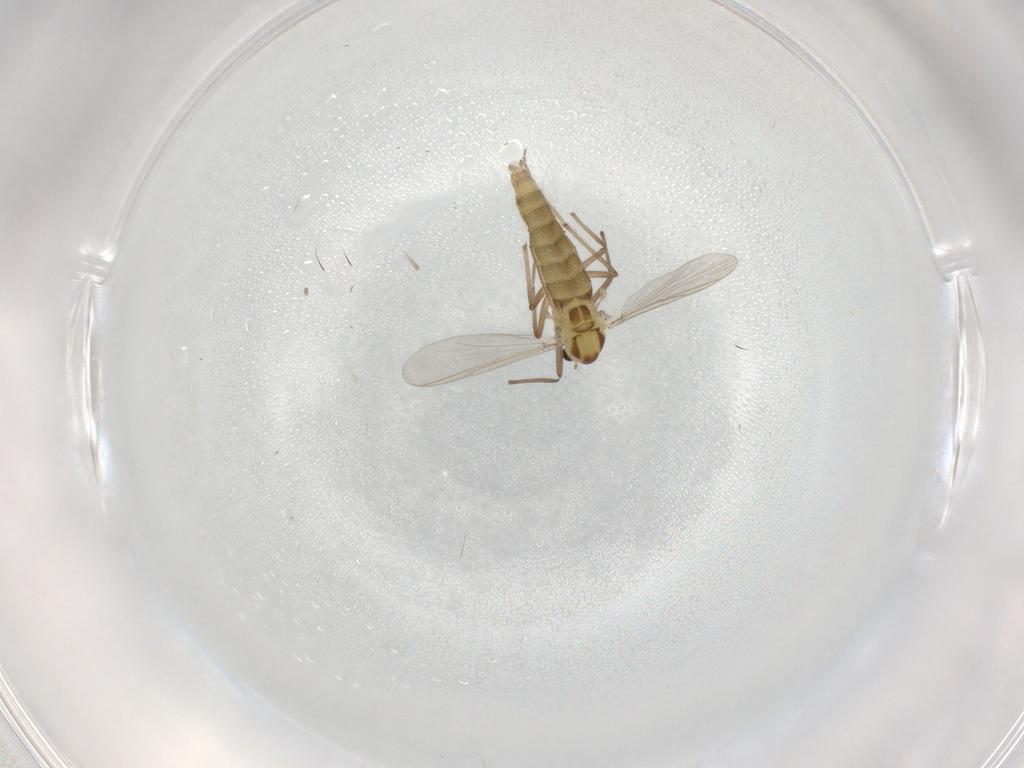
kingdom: Animalia
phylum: Arthropoda
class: Insecta
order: Diptera
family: Chironomidae
